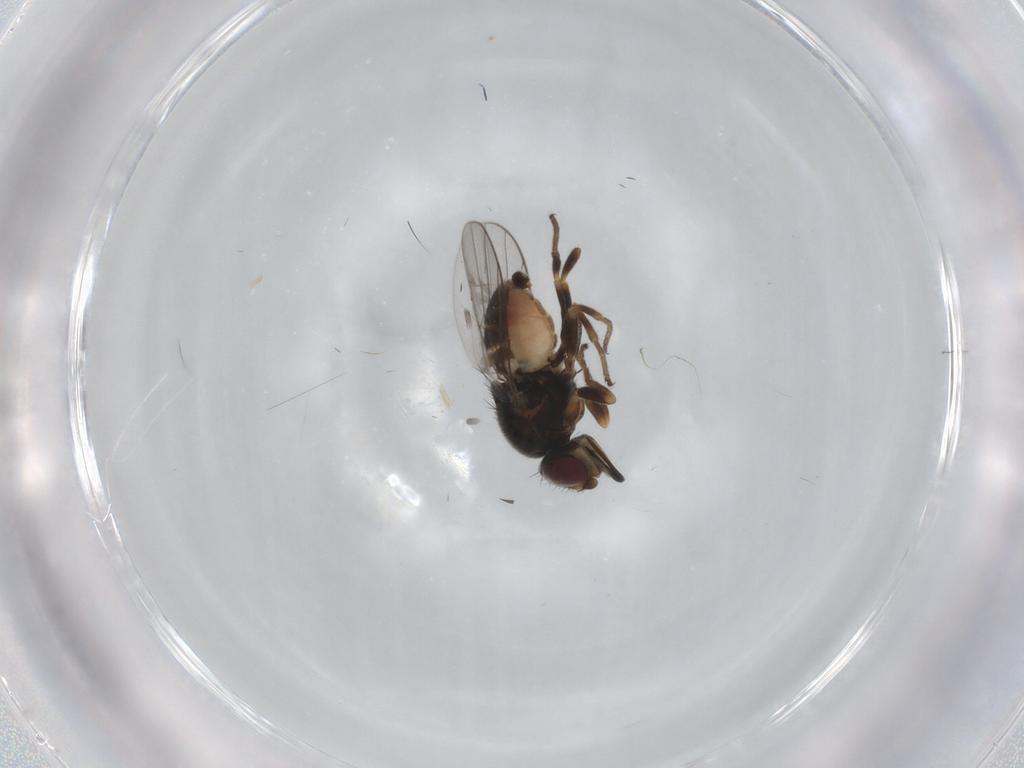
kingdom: Animalia
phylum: Arthropoda
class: Insecta
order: Diptera
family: Chloropidae
